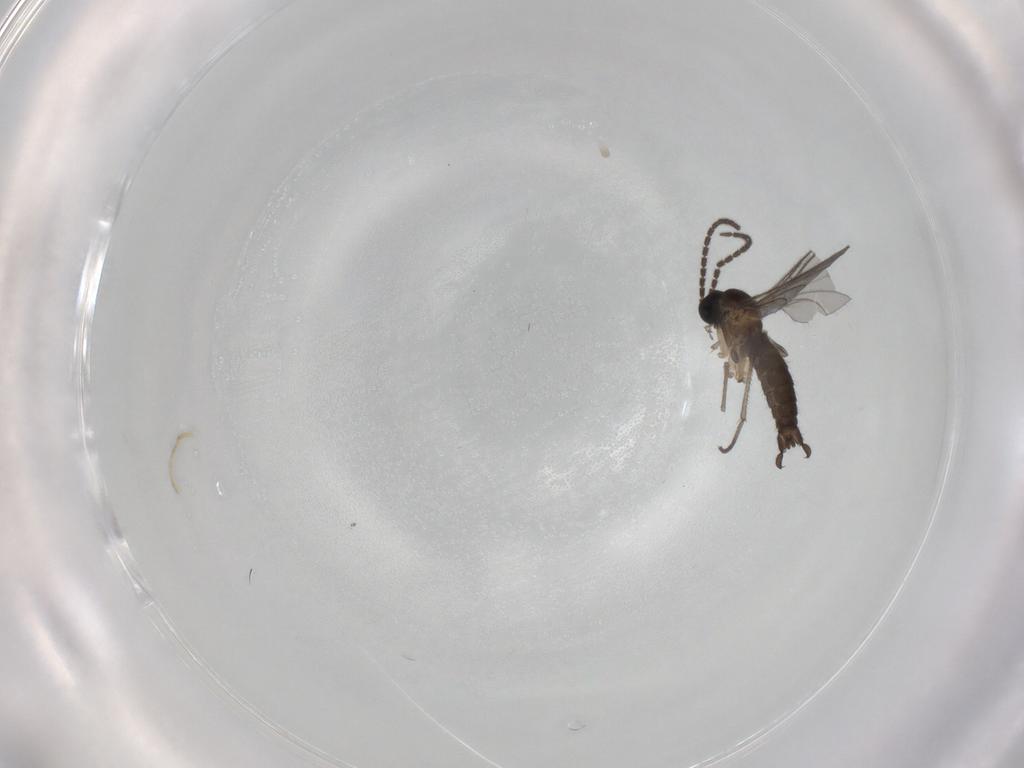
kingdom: Animalia
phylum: Arthropoda
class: Insecta
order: Diptera
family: Sciaridae
